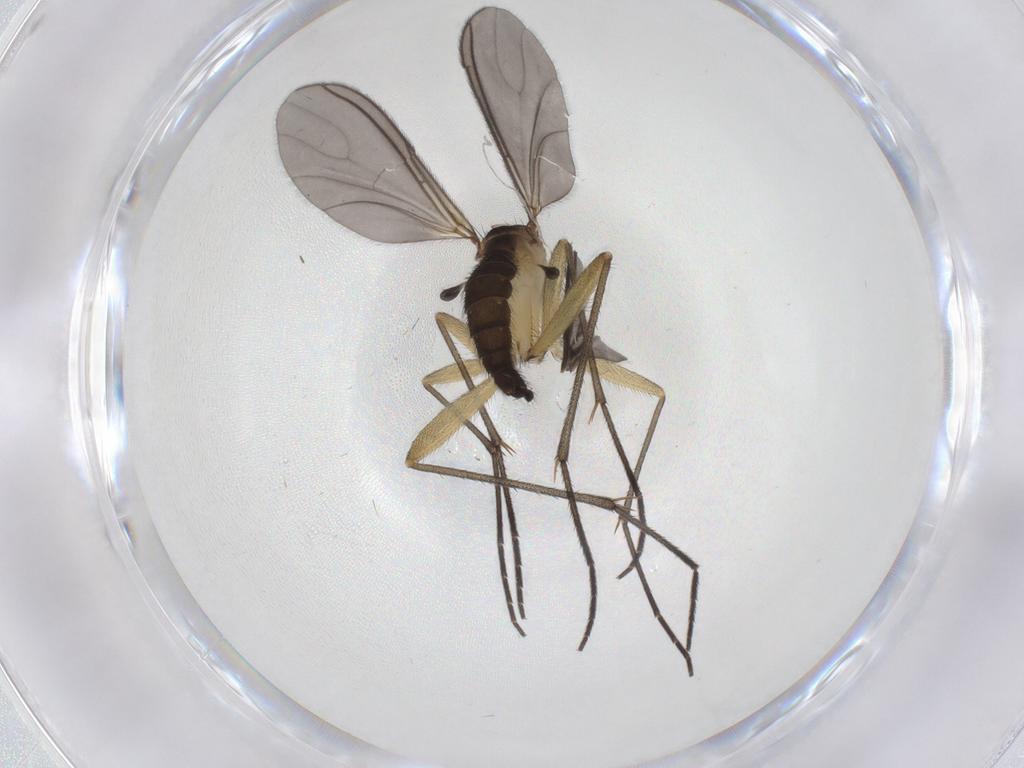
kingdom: Animalia
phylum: Arthropoda
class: Insecta
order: Diptera
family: Sciaridae
